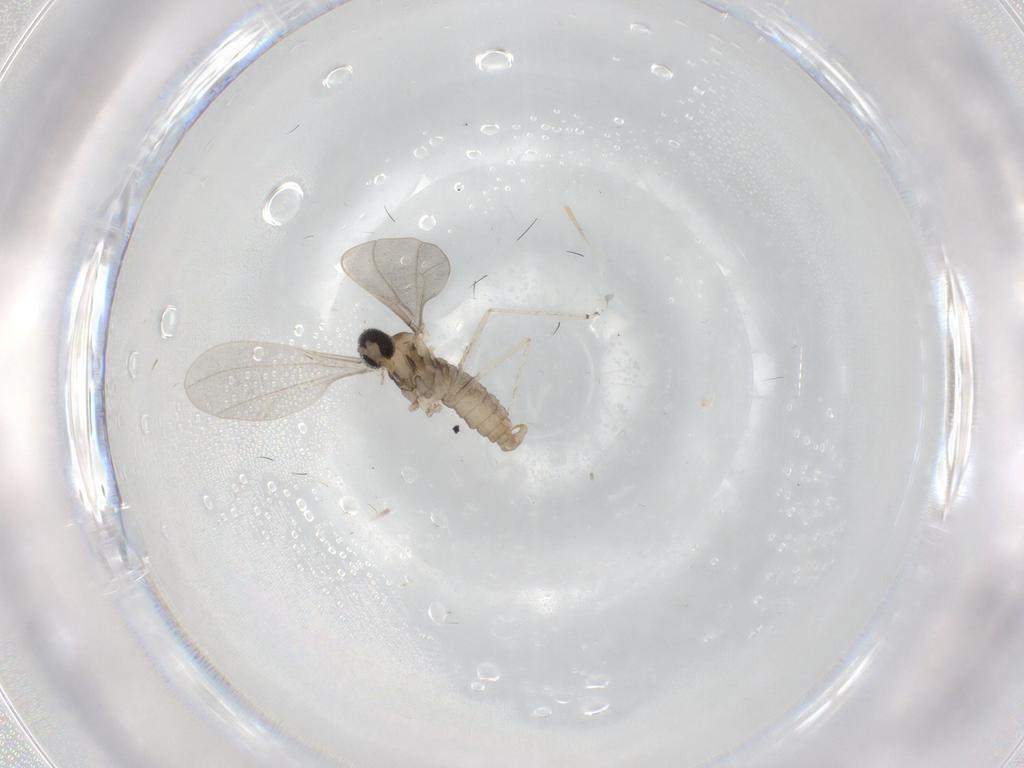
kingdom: Animalia
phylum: Arthropoda
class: Insecta
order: Diptera
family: Cecidomyiidae
